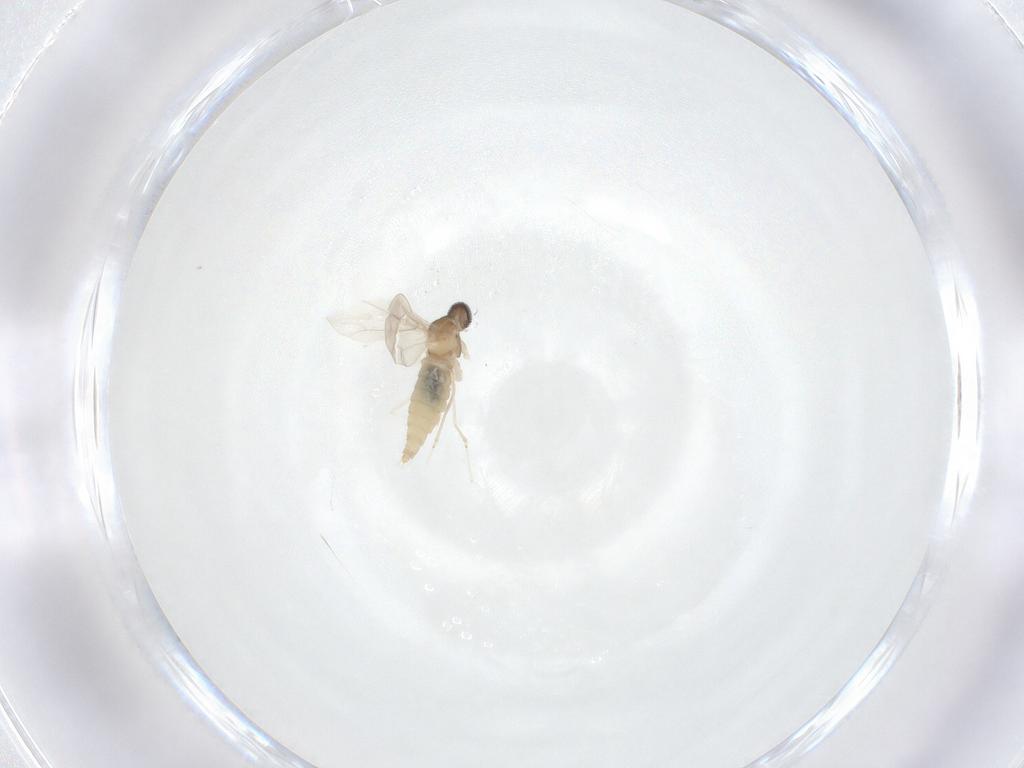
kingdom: Animalia
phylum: Arthropoda
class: Insecta
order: Diptera
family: Cecidomyiidae
